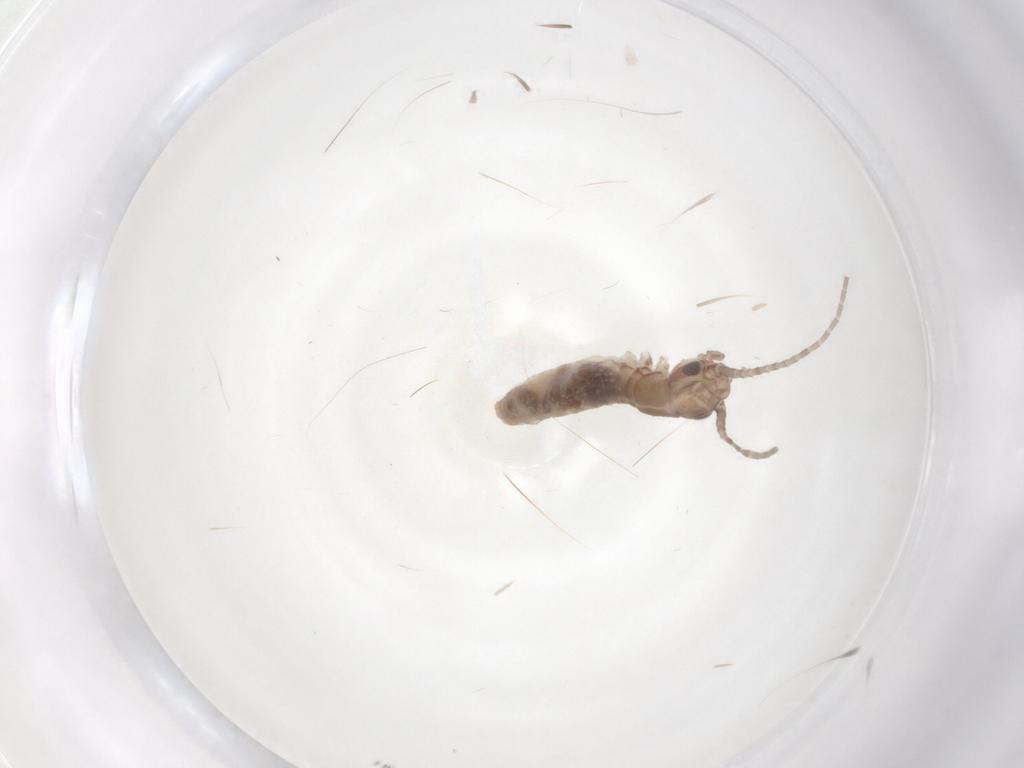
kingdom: Animalia
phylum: Arthropoda
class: Insecta
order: Orthoptera
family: Mogoplistidae
